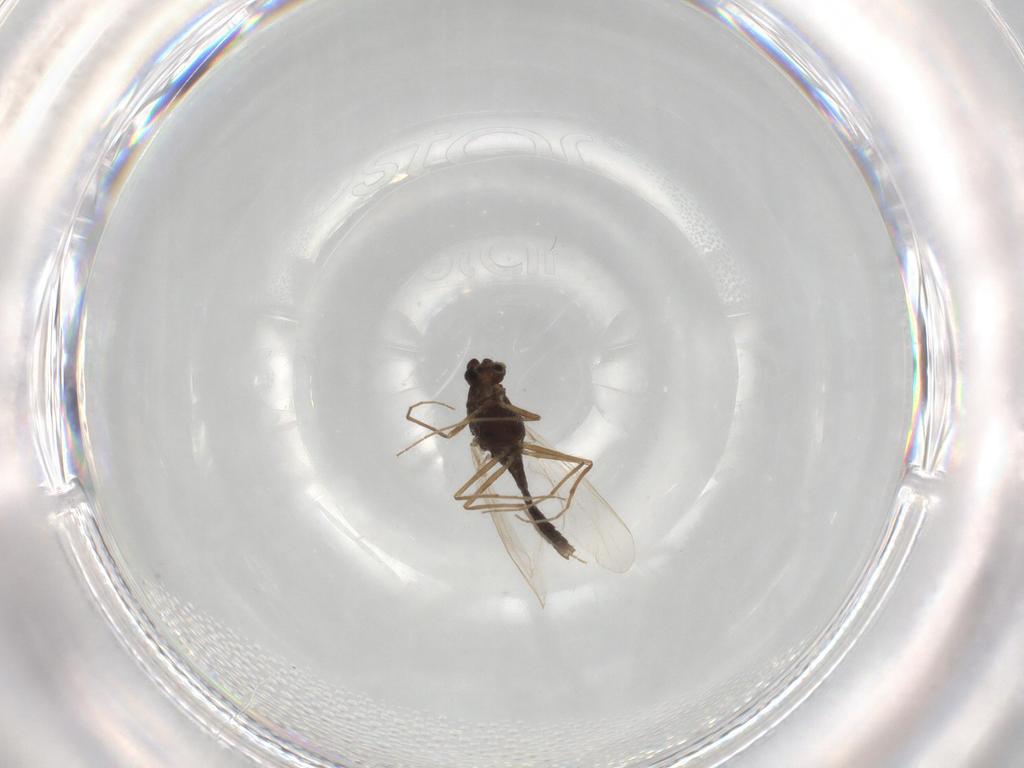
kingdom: Animalia
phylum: Arthropoda
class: Insecta
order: Diptera
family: Chironomidae
